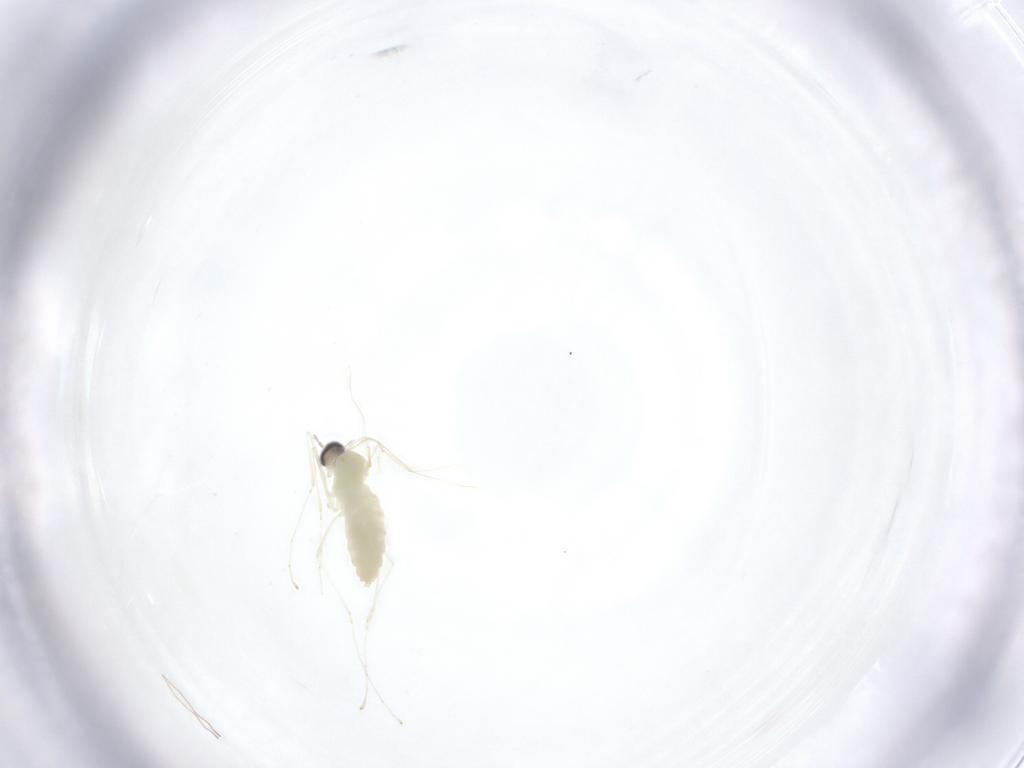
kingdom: Animalia
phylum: Arthropoda
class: Insecta
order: Diptera
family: Cecidomyiidae
